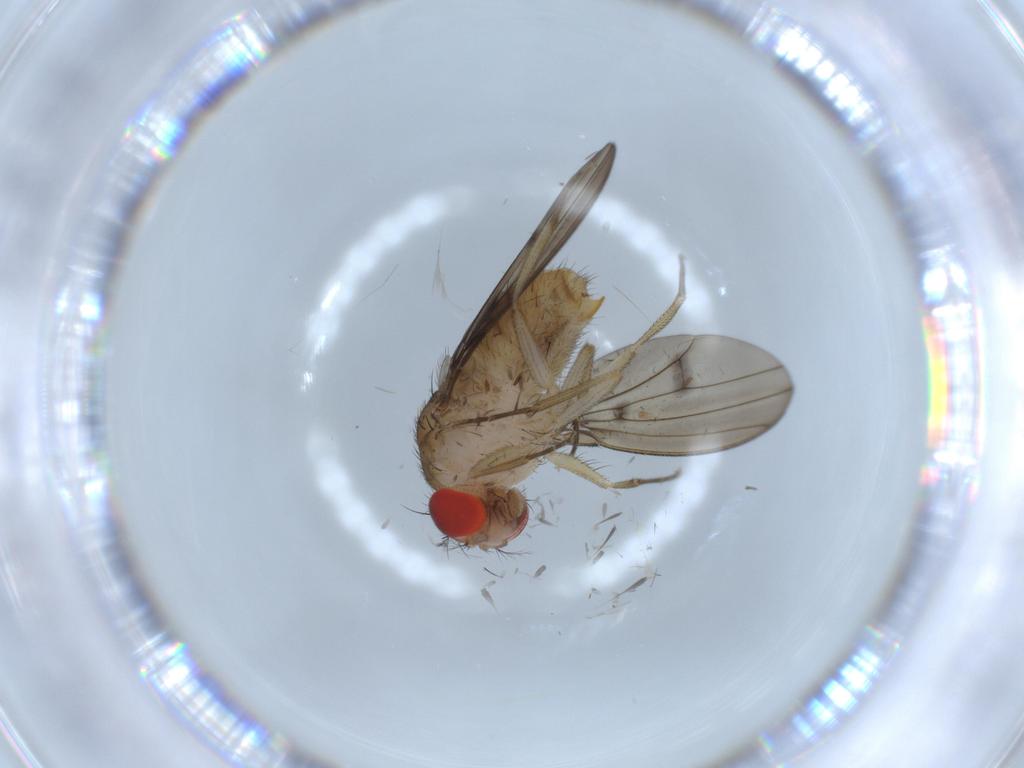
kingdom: Animalia
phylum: Arthropoda
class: Insecta
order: Diptera
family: Drosophilidae
